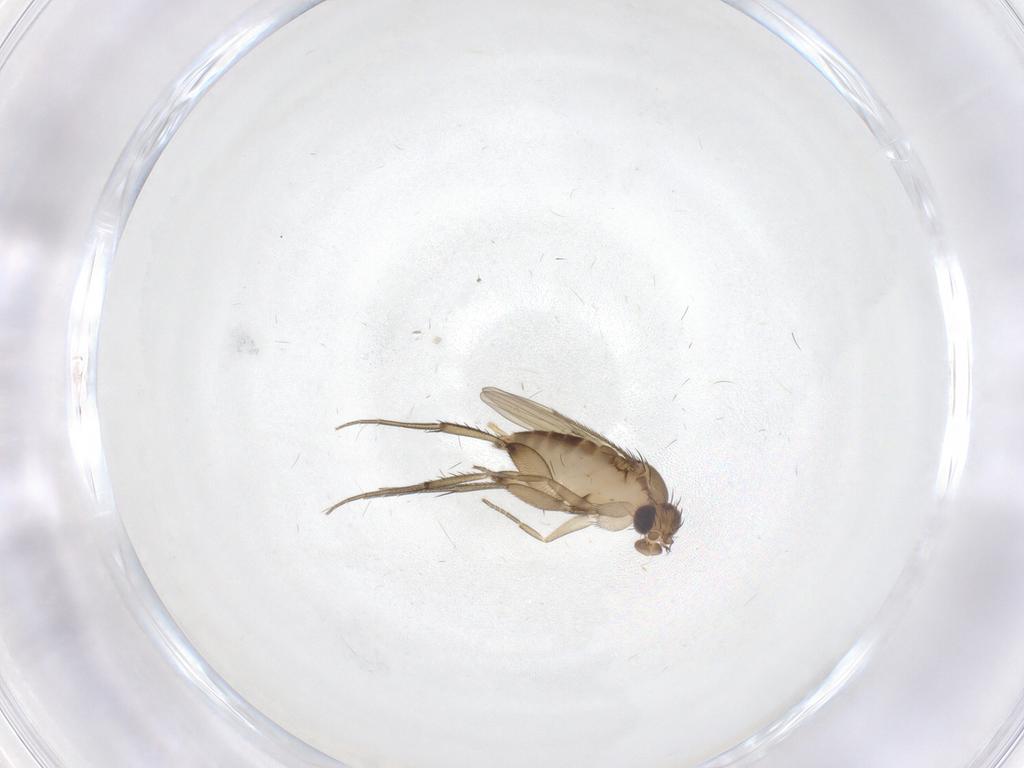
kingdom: Animalia
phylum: Arthropoda
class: Insecta
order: Diptera
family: Phoridae
